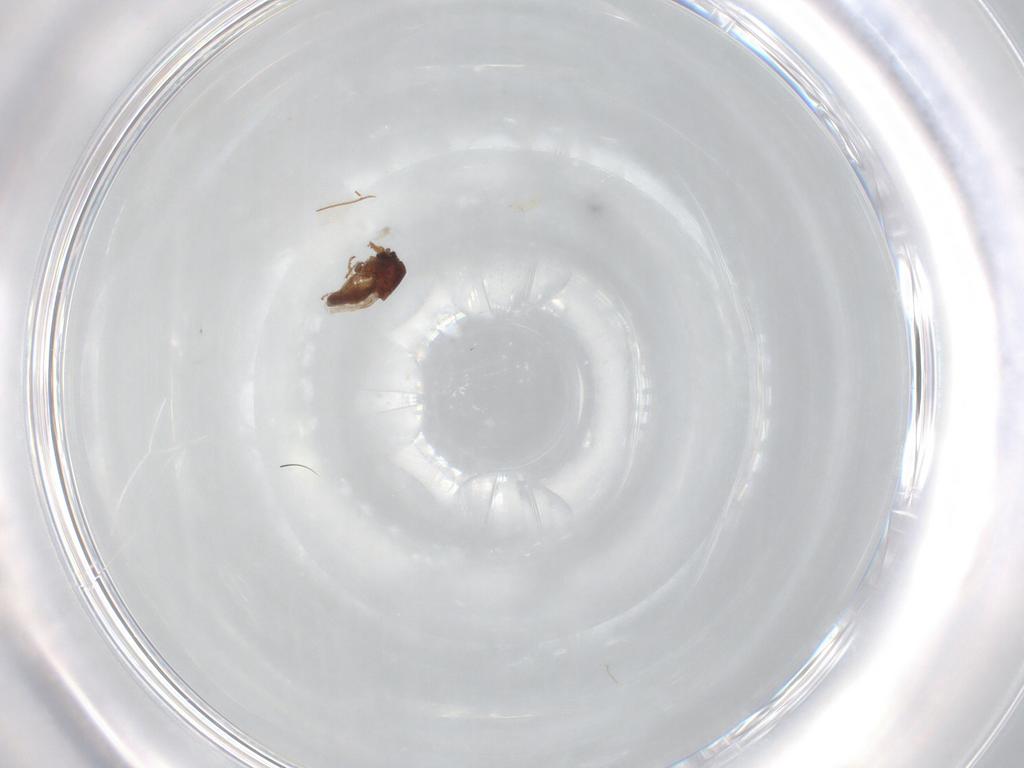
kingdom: Animalia
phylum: Arthropoda
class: Insecta
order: Diptera
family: Ceratopogonidae
